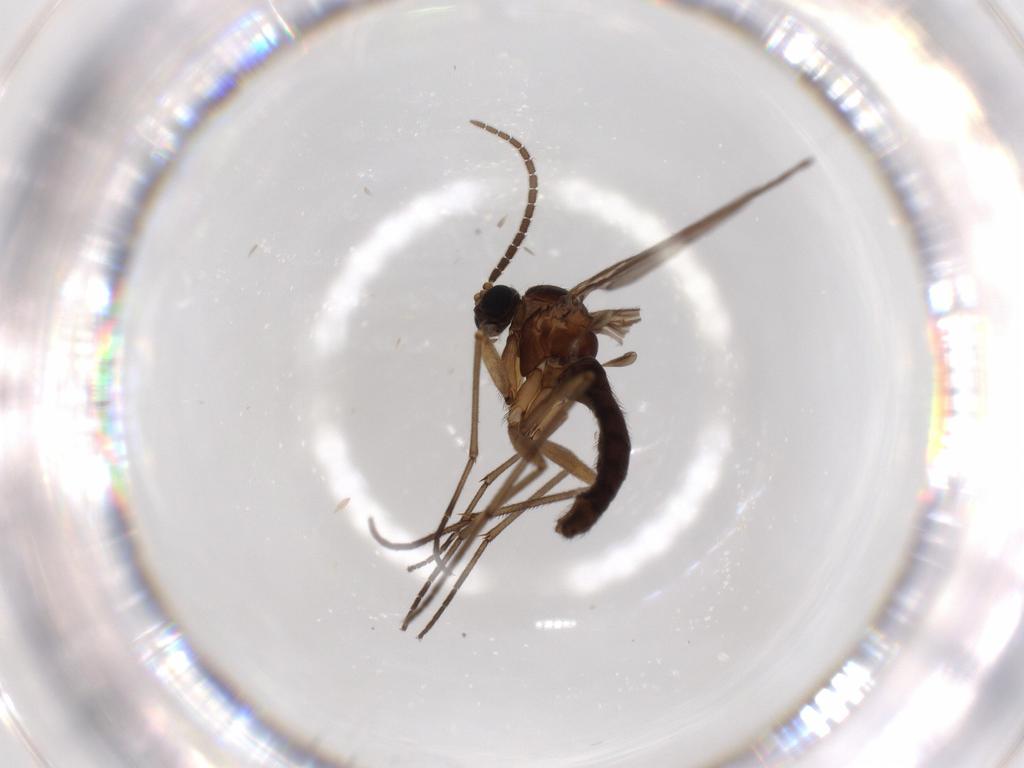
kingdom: Animalia
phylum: Arthropoda
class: Insecta
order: Diptera
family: Sciaridae
